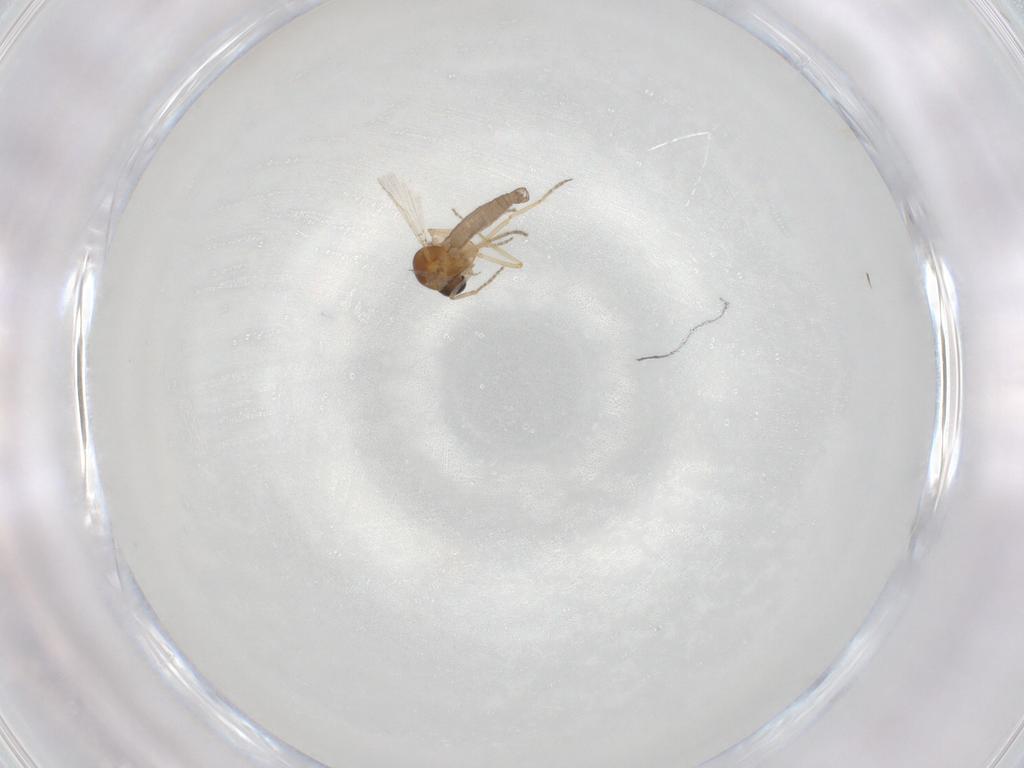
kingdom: Animalia
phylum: Arthropoda
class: Insecta
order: Diptera
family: Ceratopogonidae
